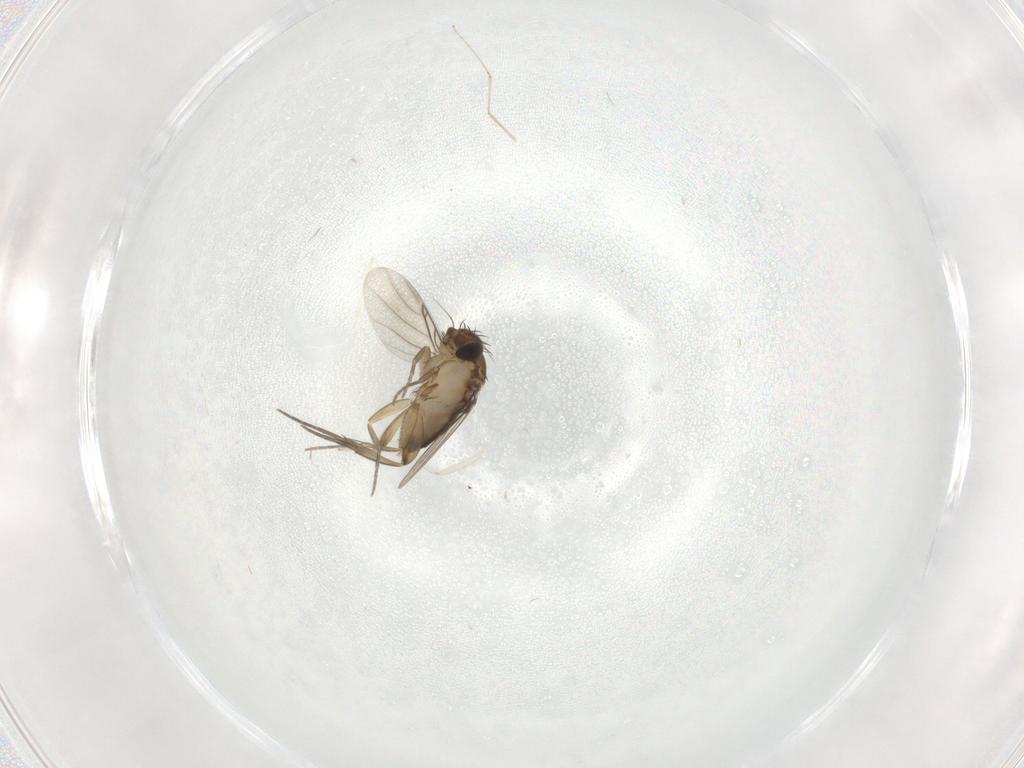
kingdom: Animalia
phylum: Arthropoda
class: Insecta
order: Diptera
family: Phoridae
